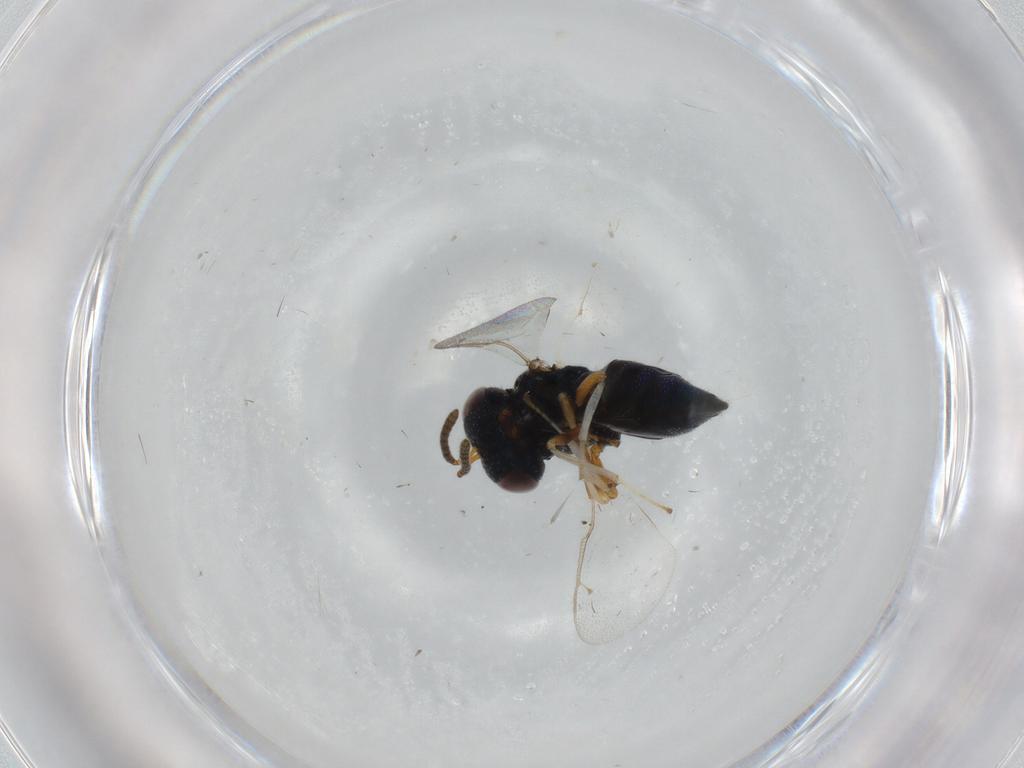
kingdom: Animalia
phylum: Arthropoda
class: Insecta
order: Hymenoptera
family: Pteromalidae
